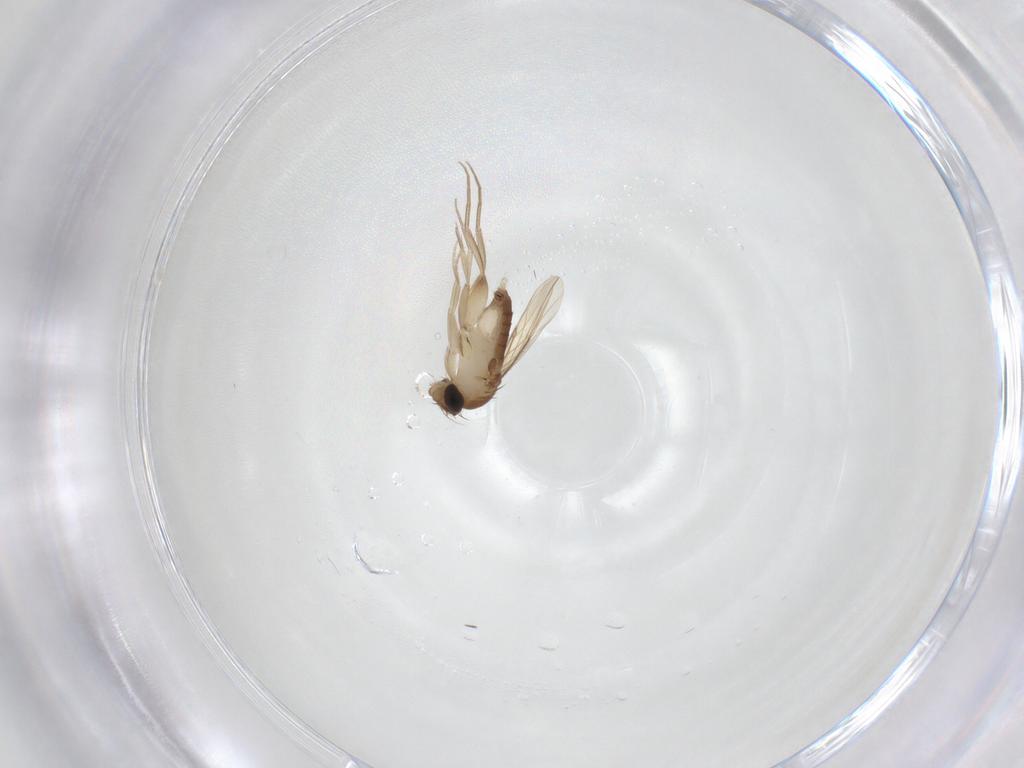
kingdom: Animalia
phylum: Arthropoda
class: Insecta
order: Diptera
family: Phoridae
